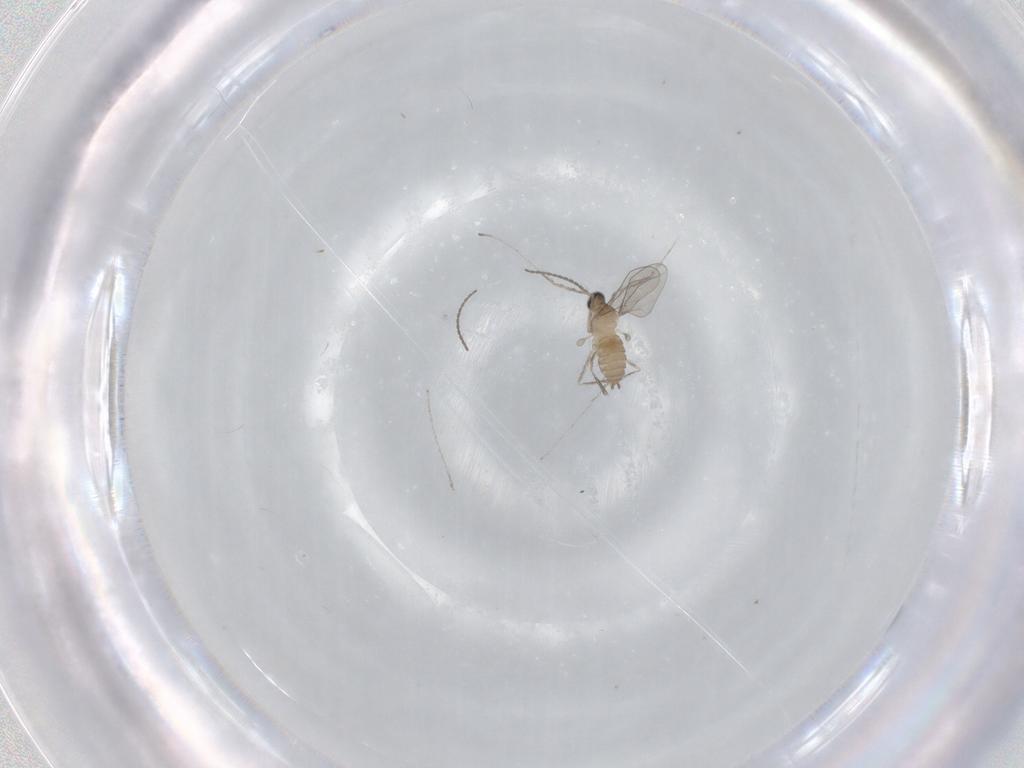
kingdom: Animalia
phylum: Arthropoda
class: Insecta
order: Diptera
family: Cecidomyiidae
